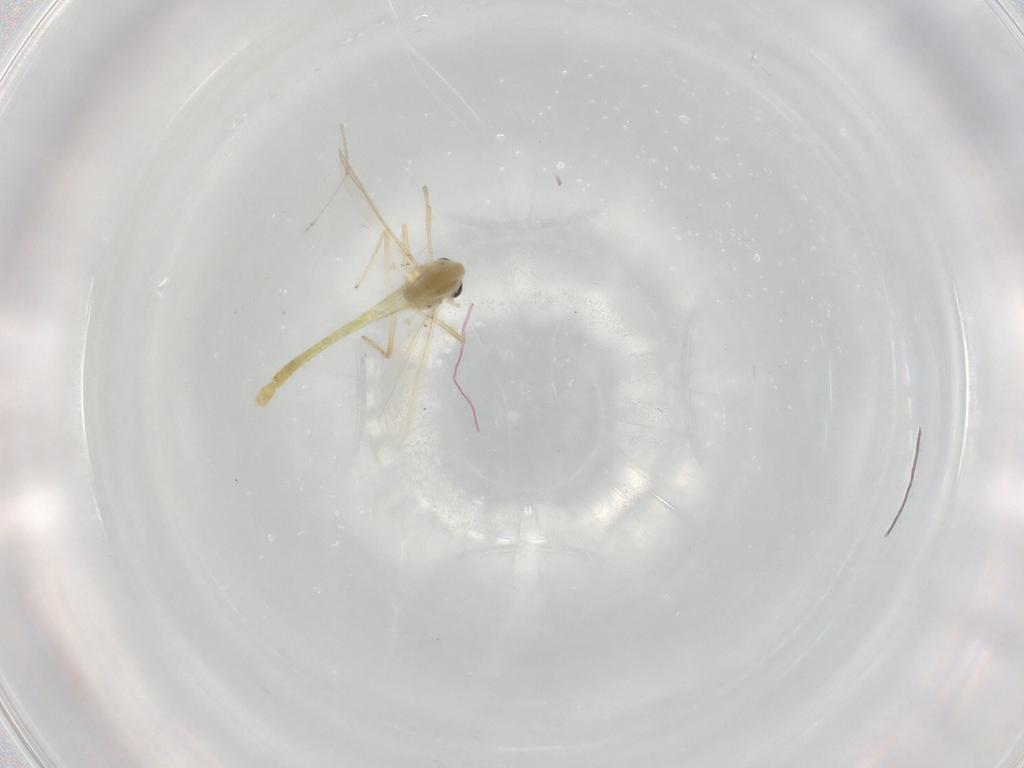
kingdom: Animalia
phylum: Arthropoda
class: Insecta
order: Diptera
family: Chironomidae
